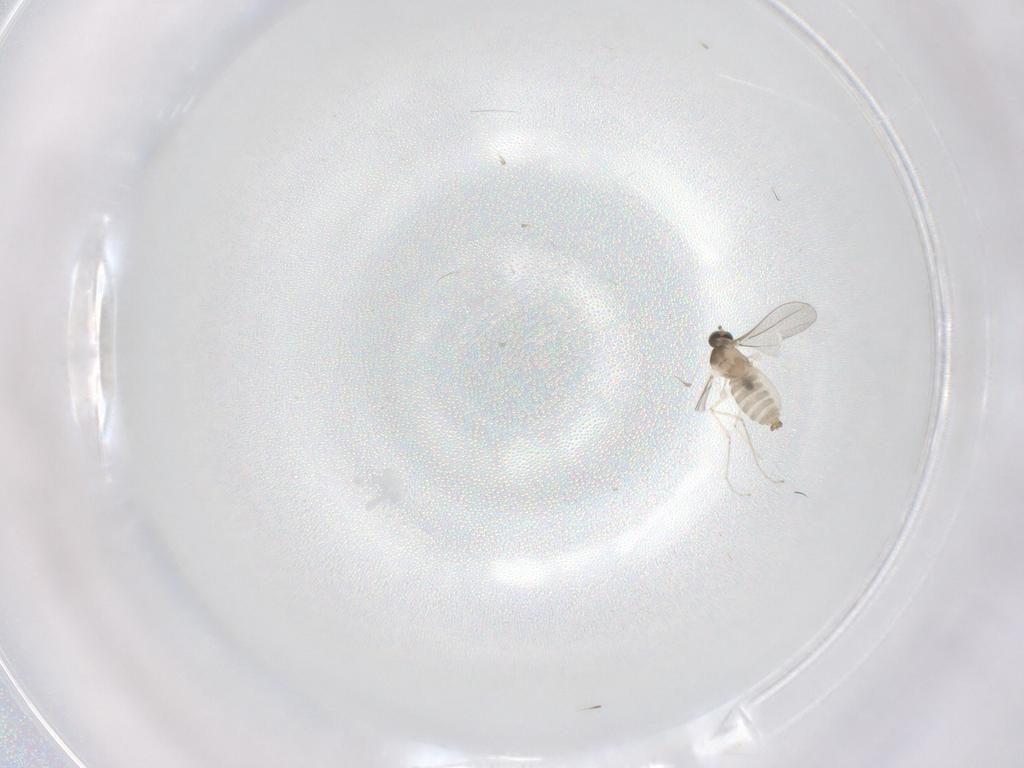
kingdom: Animalia
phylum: Arthropoda
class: Insecta
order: Diptera
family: Cecidomyiidae
